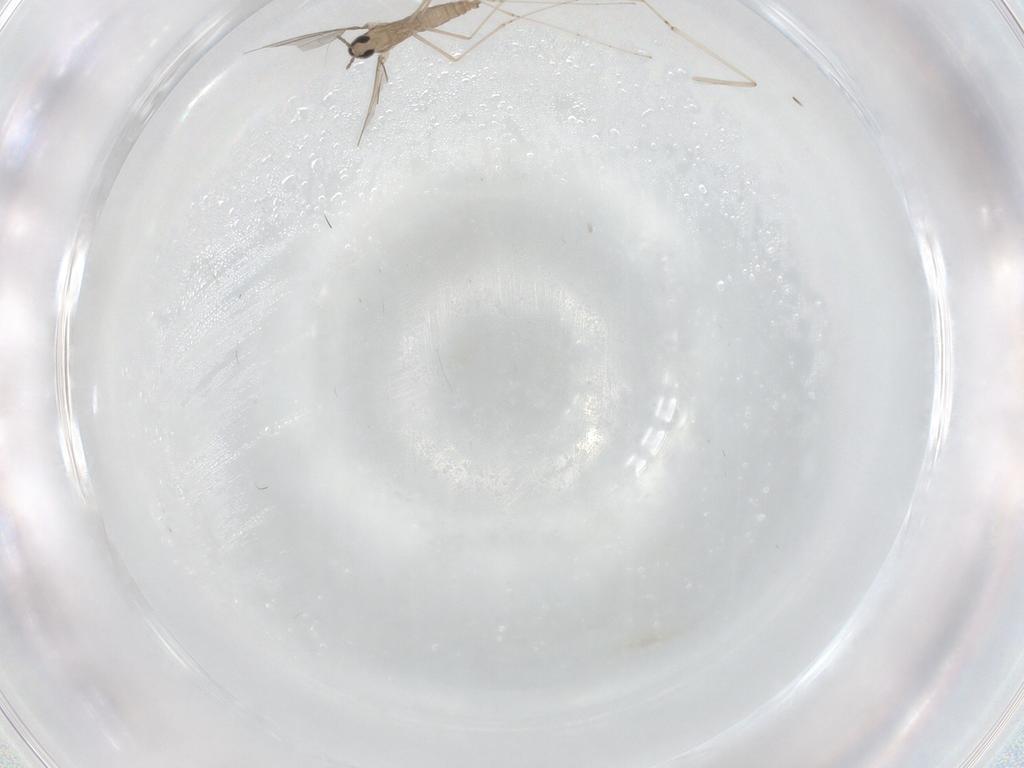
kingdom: Animalia
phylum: Arthropoda
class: Insecta
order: Diptera
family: Cecidomyiidae
